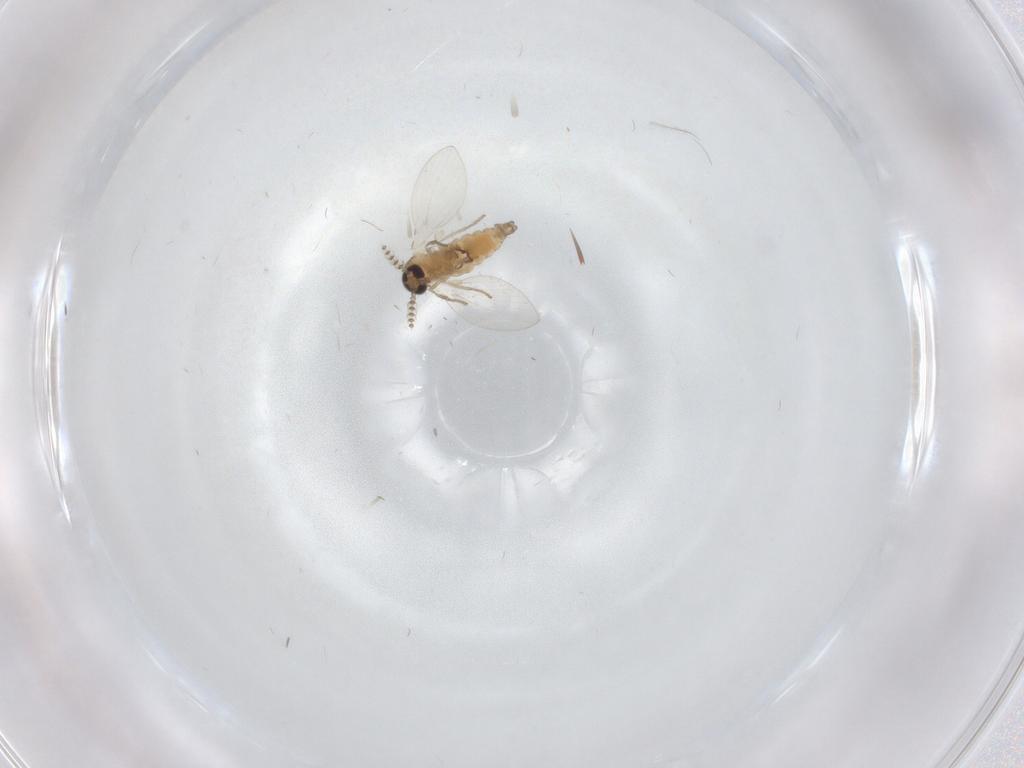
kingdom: Animalia
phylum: Arthropoda
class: Insecta
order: Diptera
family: Psychodidae
